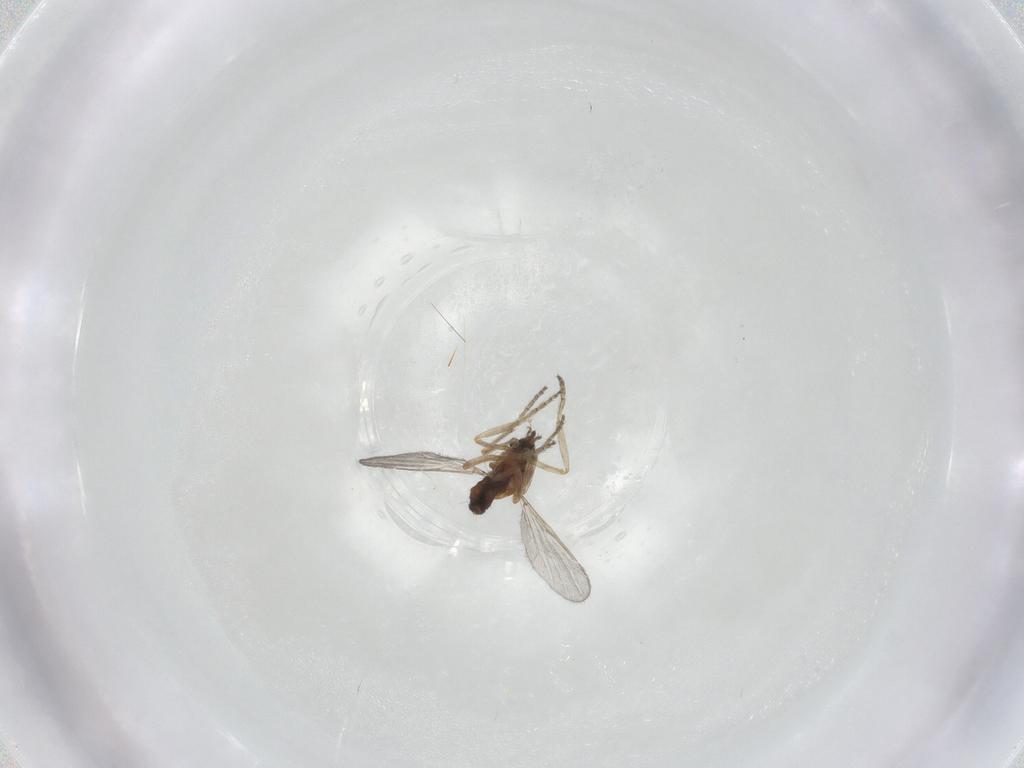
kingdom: Animalia
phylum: Arthropoda
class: Insecta
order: Diptera
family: Ceratopogonidae
